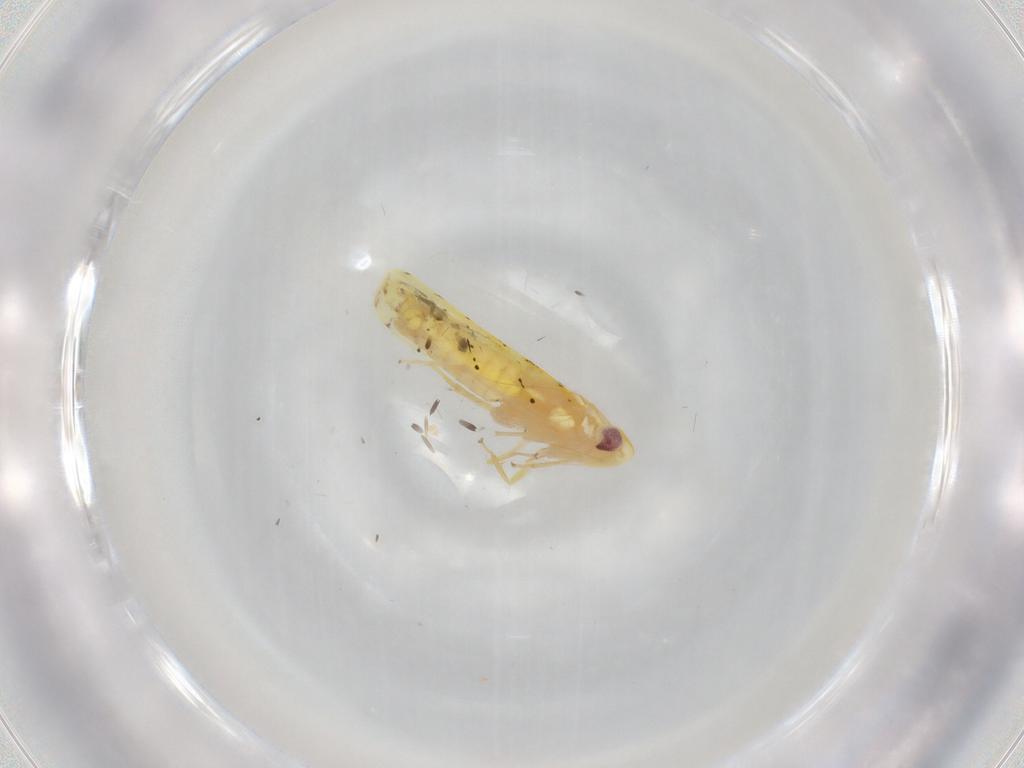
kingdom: Animalia
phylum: Arthropoda
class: Insecta
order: Hemiptera
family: Cicadellidae
